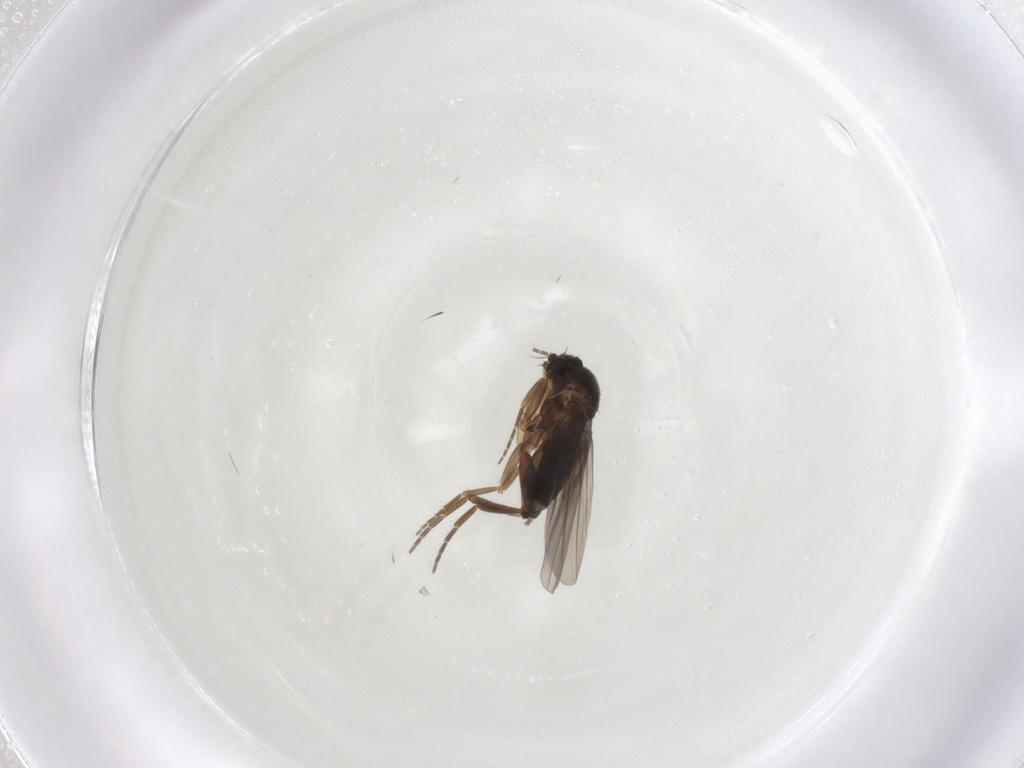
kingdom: Animalia
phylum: Arthropoda
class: Insecta
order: Diptera
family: Phoridae
